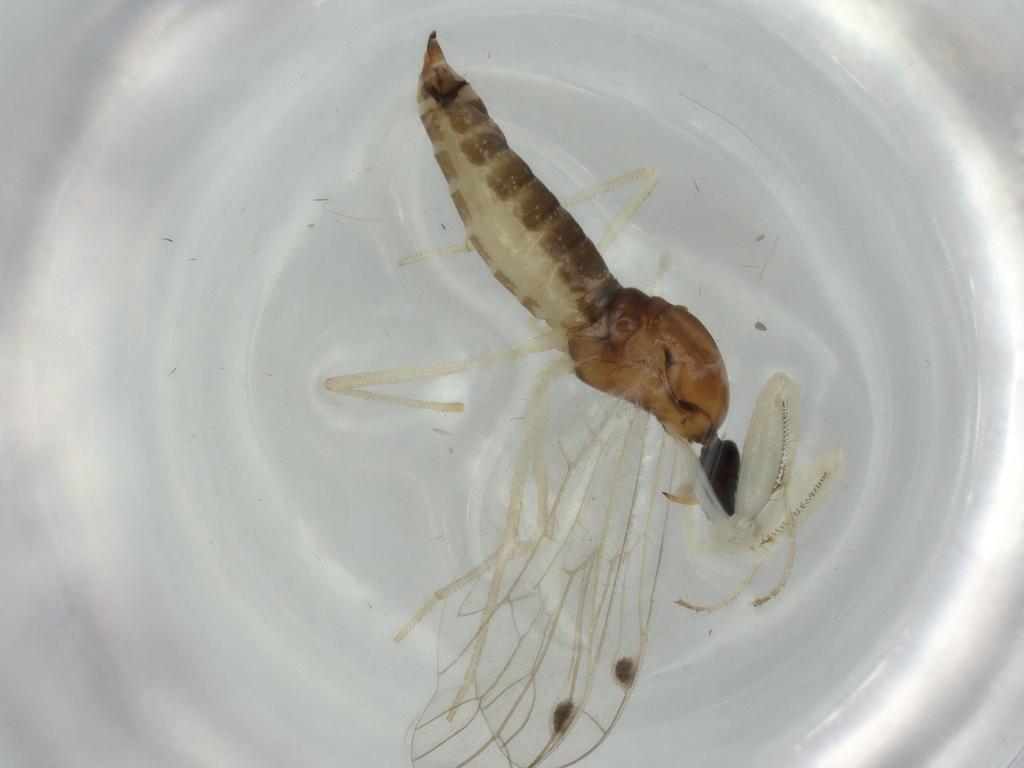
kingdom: Animalia
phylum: Arthropoda
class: Insecta
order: Diptera
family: Empididae
